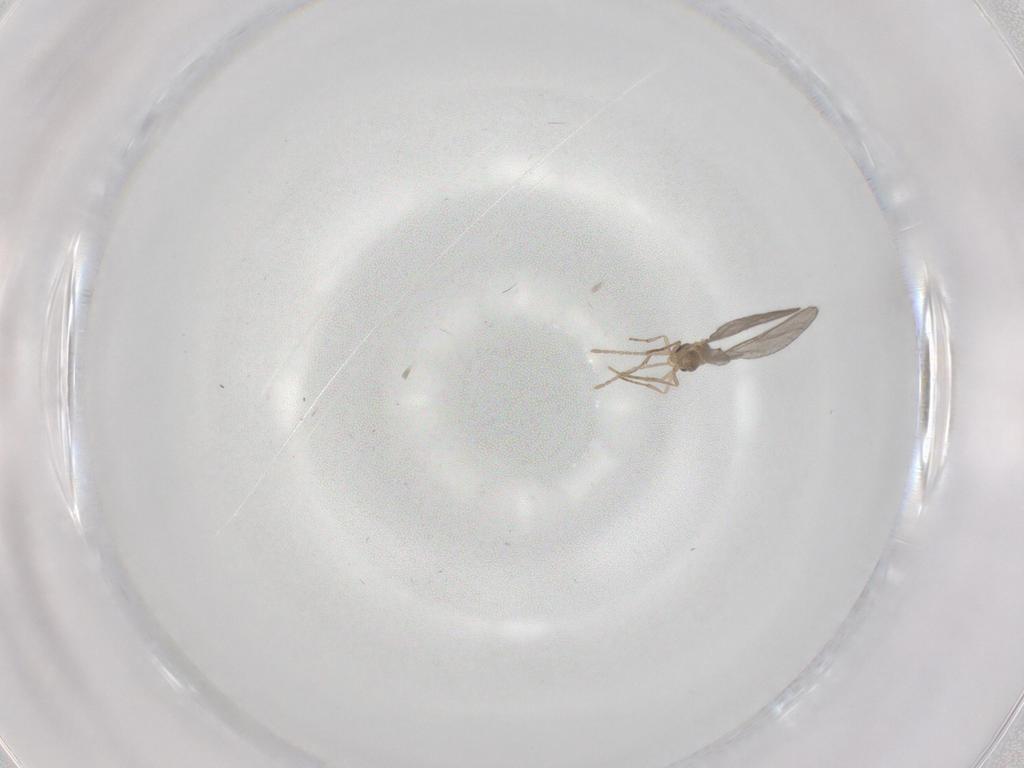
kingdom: Animalia
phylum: Arthropoda
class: Insecta
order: Hymenoptera
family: Formicidae
